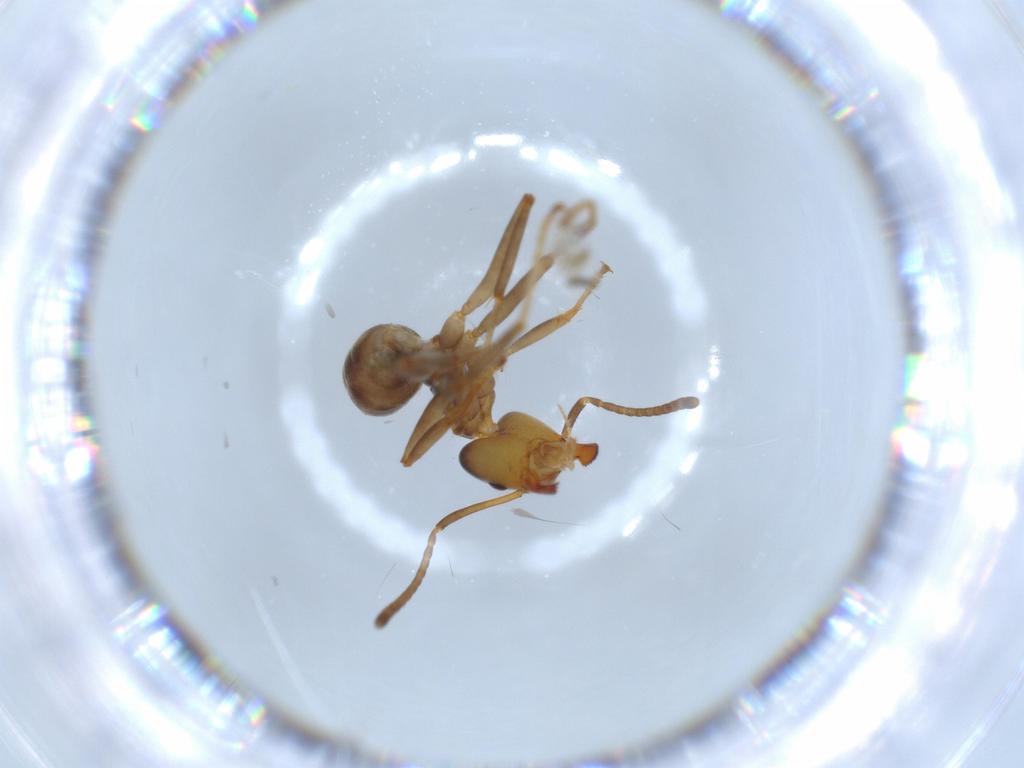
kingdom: Animalia
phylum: Arthropoda
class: Insecta
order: Hymenoptera
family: Formicidae
